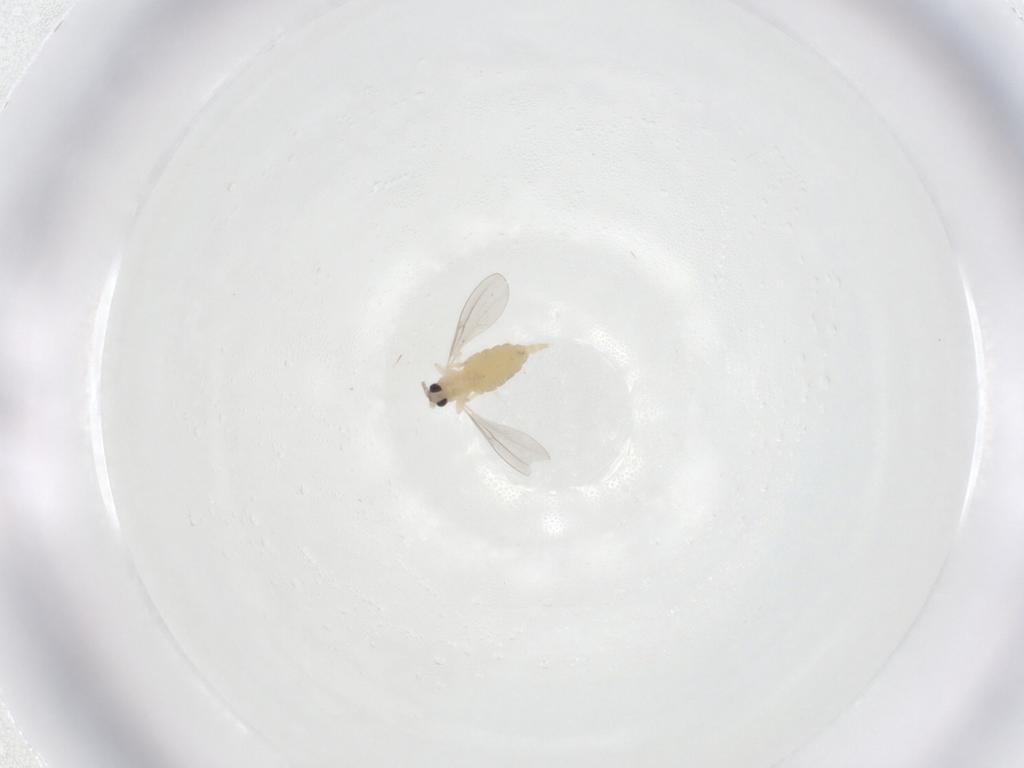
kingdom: Animalia
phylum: Arthropoda
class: Insecta
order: Diptera
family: Cecidomyiidae
